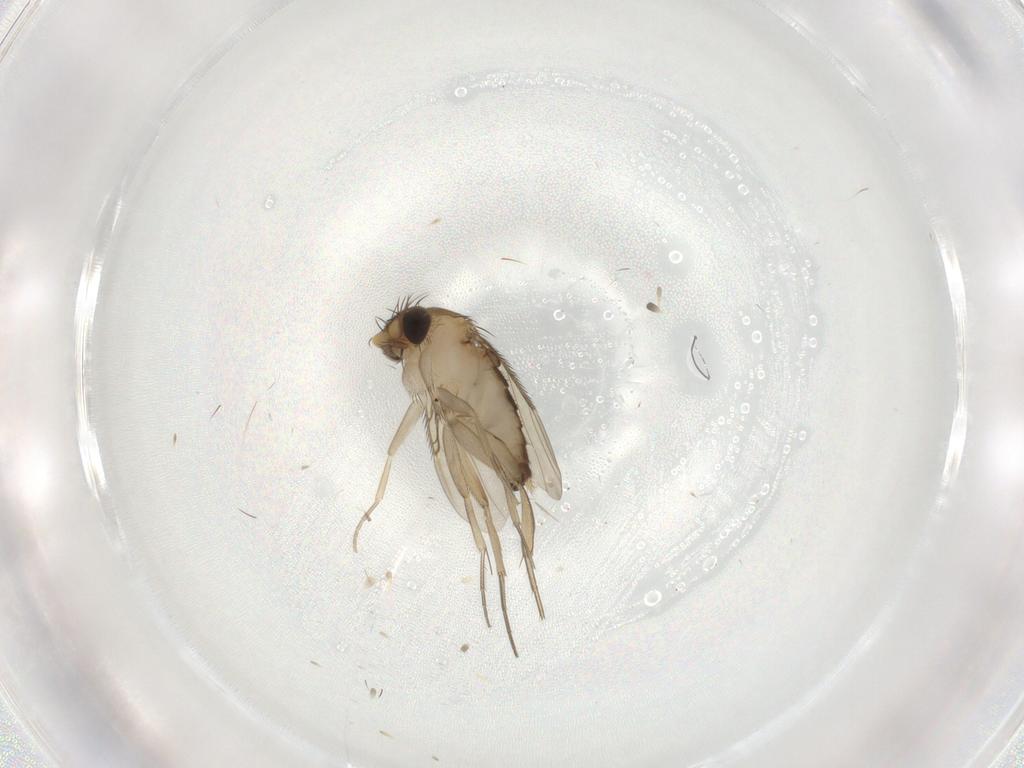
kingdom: Animalia
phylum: Arthropoda
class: Insecta
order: Diptera
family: Phoridae
